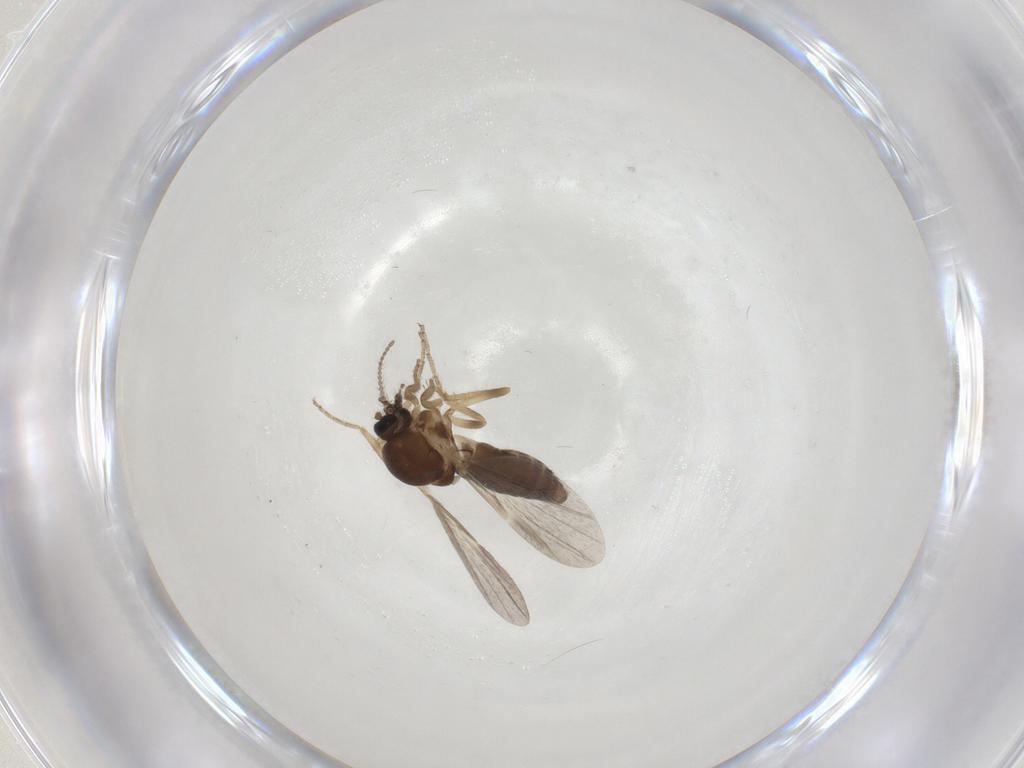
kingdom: Animalia
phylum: Arthropoda
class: Insecta
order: Diptera
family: Ceratopogonidae
